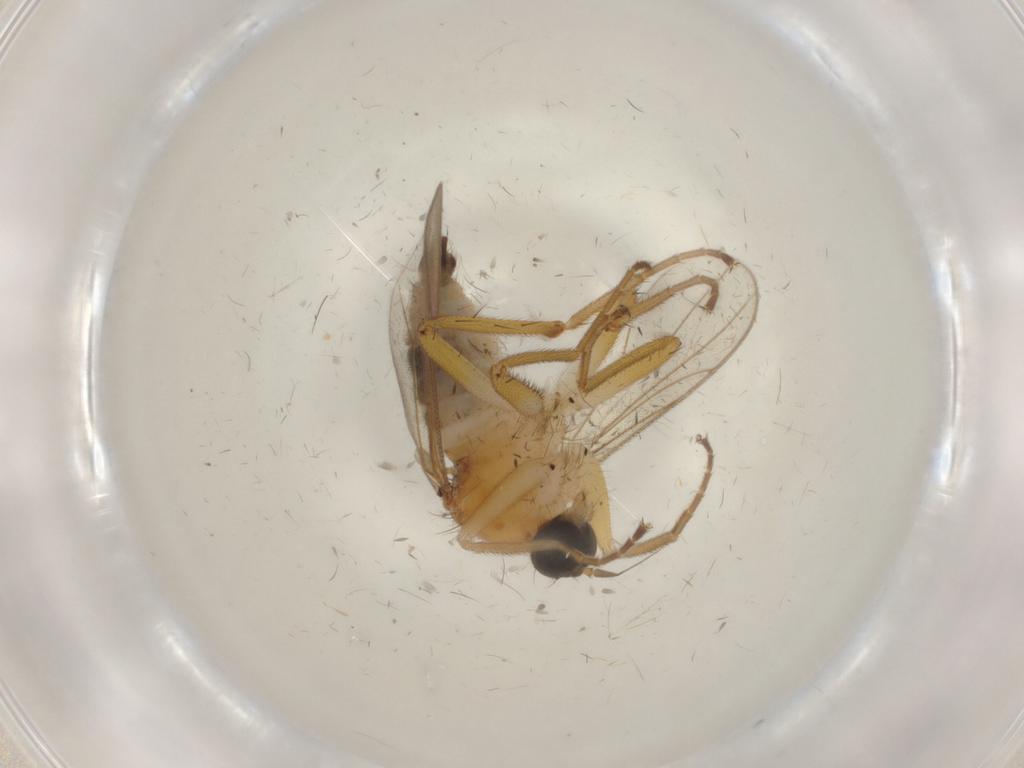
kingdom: Animalia
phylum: Arthropoda
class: Insecta
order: Diptera
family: Hybotidae
